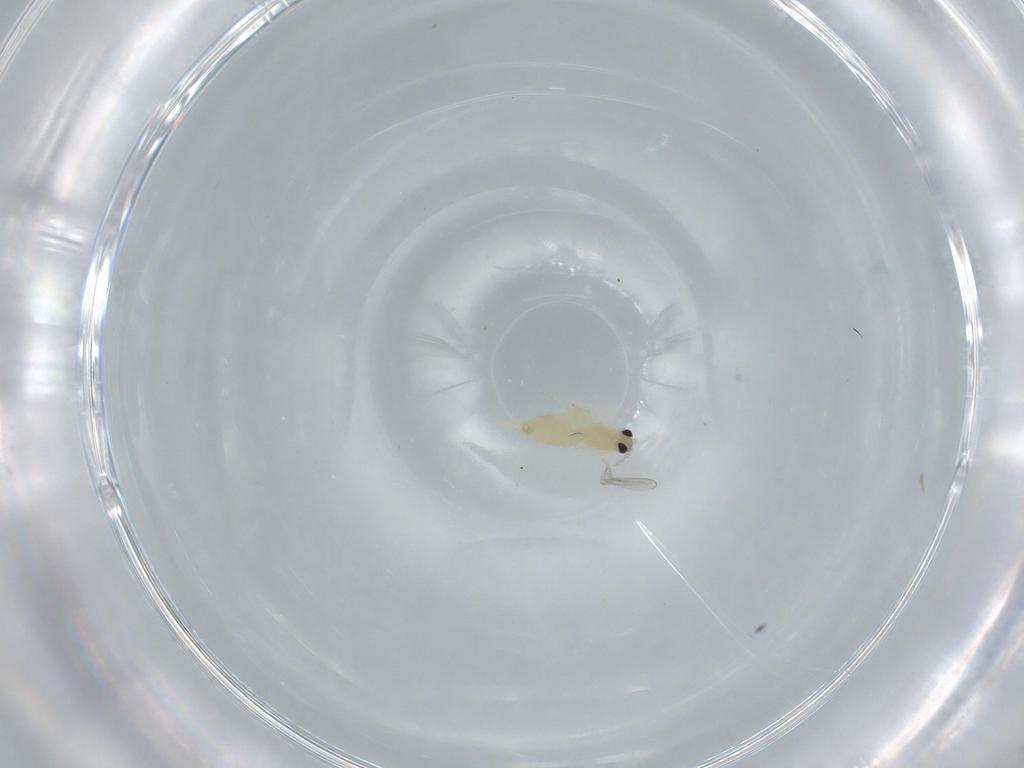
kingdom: Animalia
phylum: Arthropoda
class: Insecta
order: Diptera
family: Cecidomyiidae
